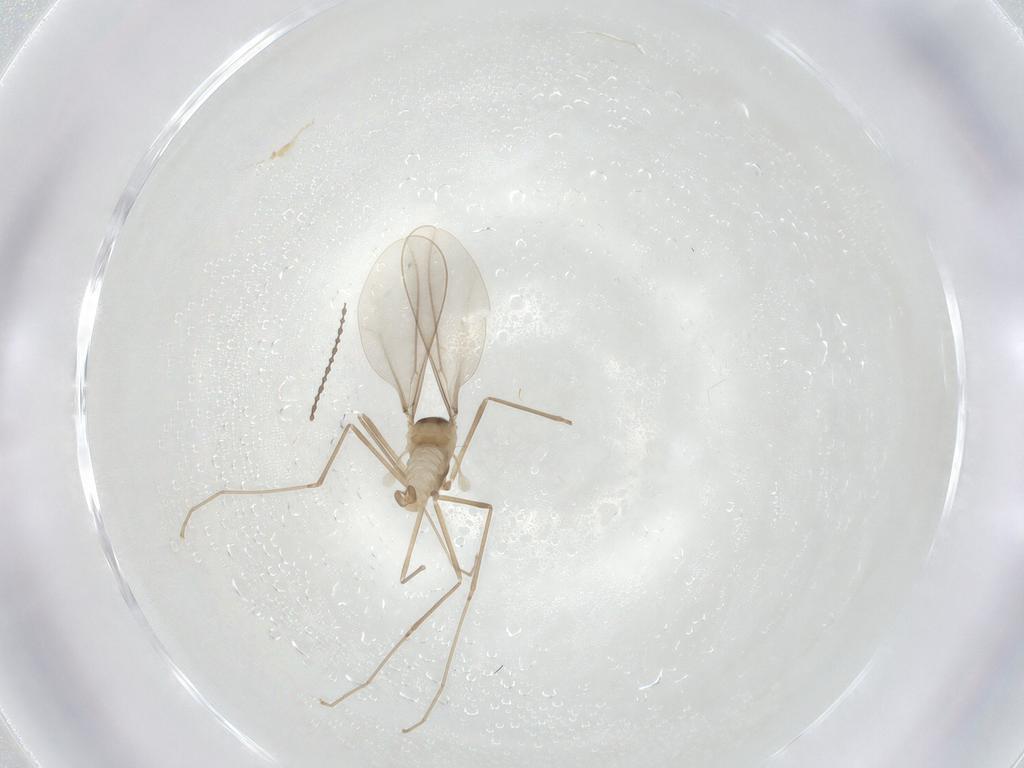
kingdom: Animalia
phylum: Arthropoda
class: Insecta
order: Diptera
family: Cecidomyiidae
